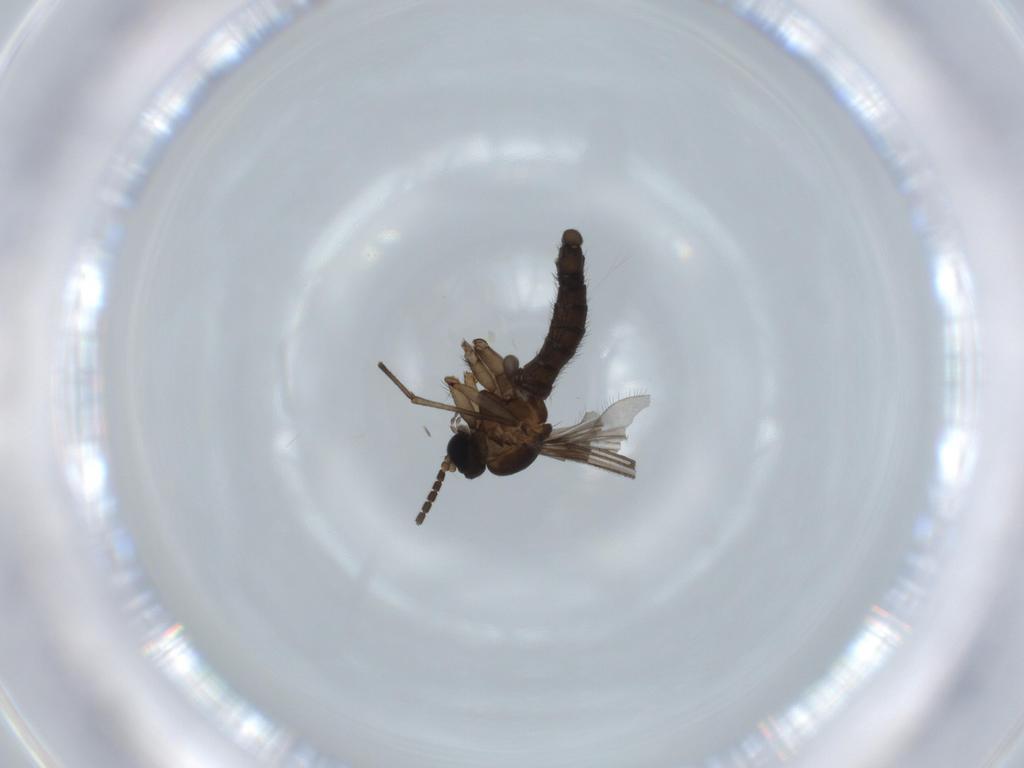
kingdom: Animalia
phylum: Arthropoda
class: Insecta
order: Diptera
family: Sciaridae
